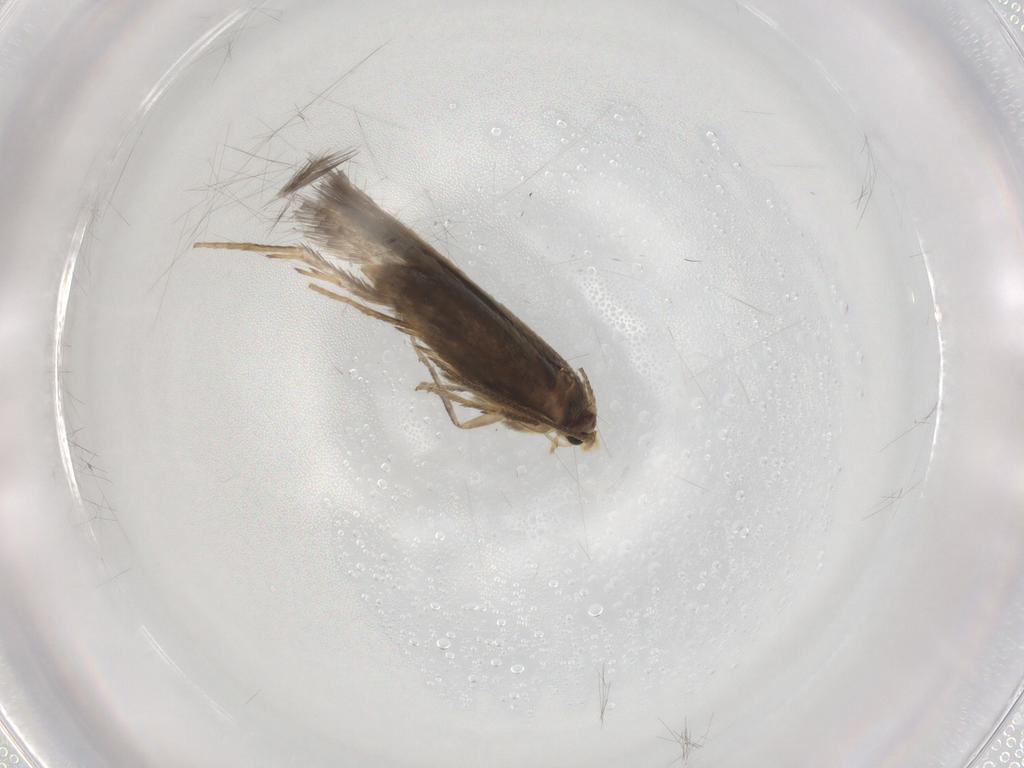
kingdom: Animalia
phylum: Arthropoda
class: Insecta
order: Lepidoptera
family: Nepticulidae
